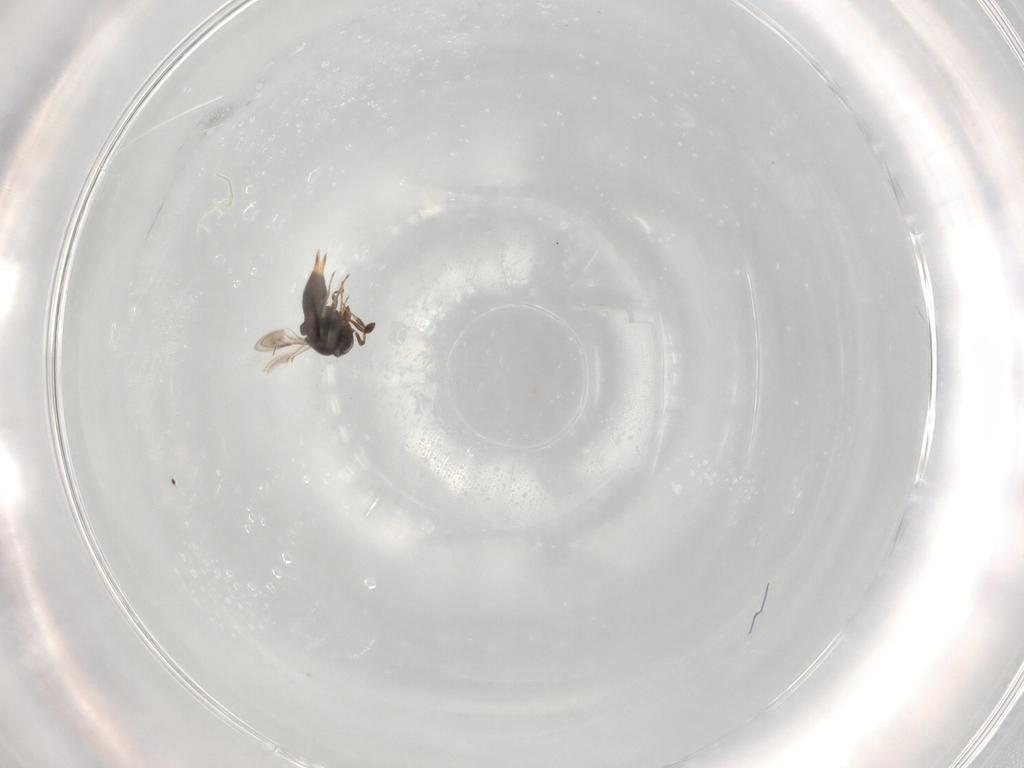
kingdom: Animalia
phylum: Arthropoda
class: Insecta
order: Hymenoptera
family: Scelionidae
